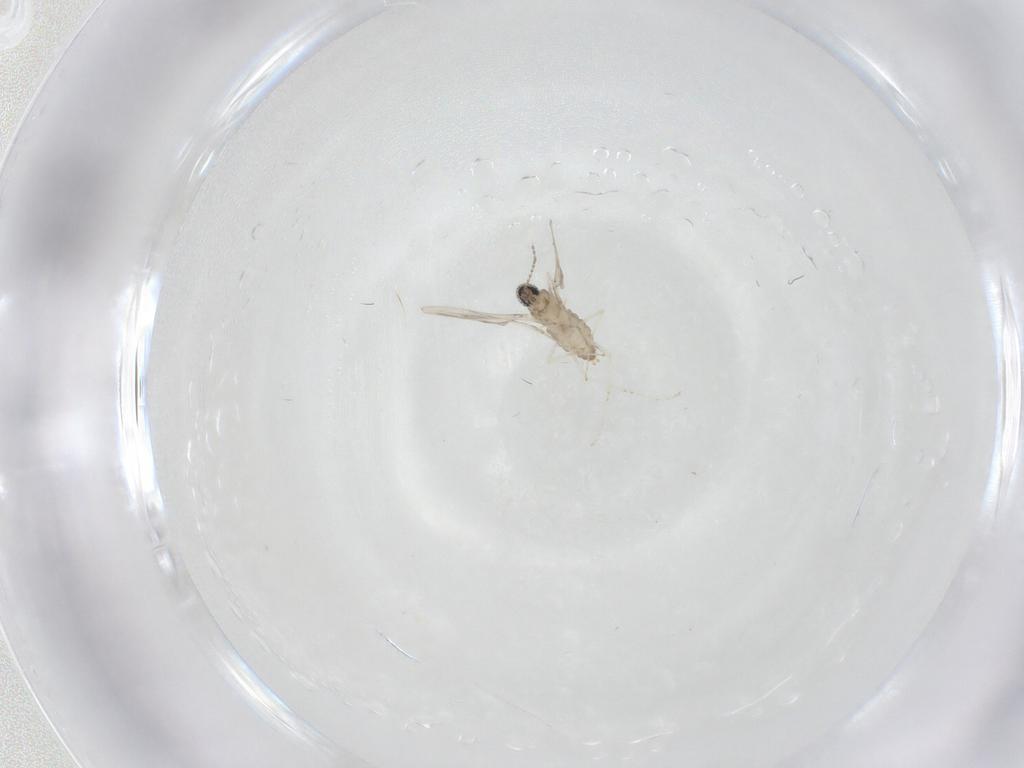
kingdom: Animalia
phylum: Arthropoda
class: Insecta
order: Diptera
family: Cecidomyiidae
